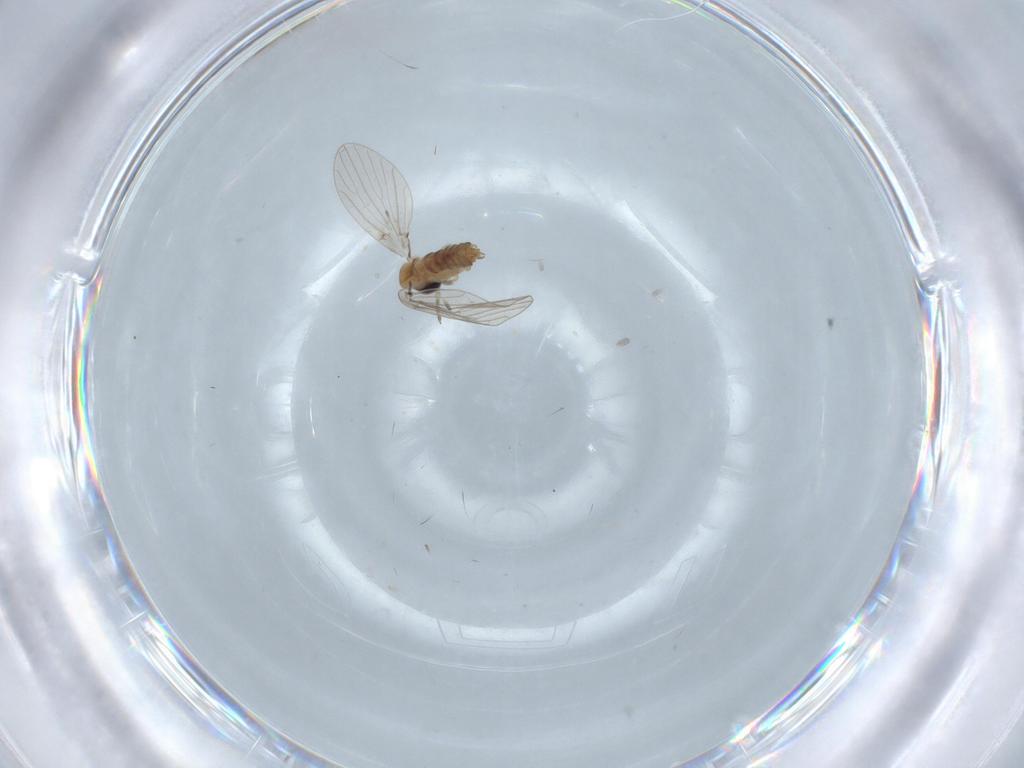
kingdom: Animalia
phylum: Arthropoda
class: Insecta
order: Diptera
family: Psychodidae
